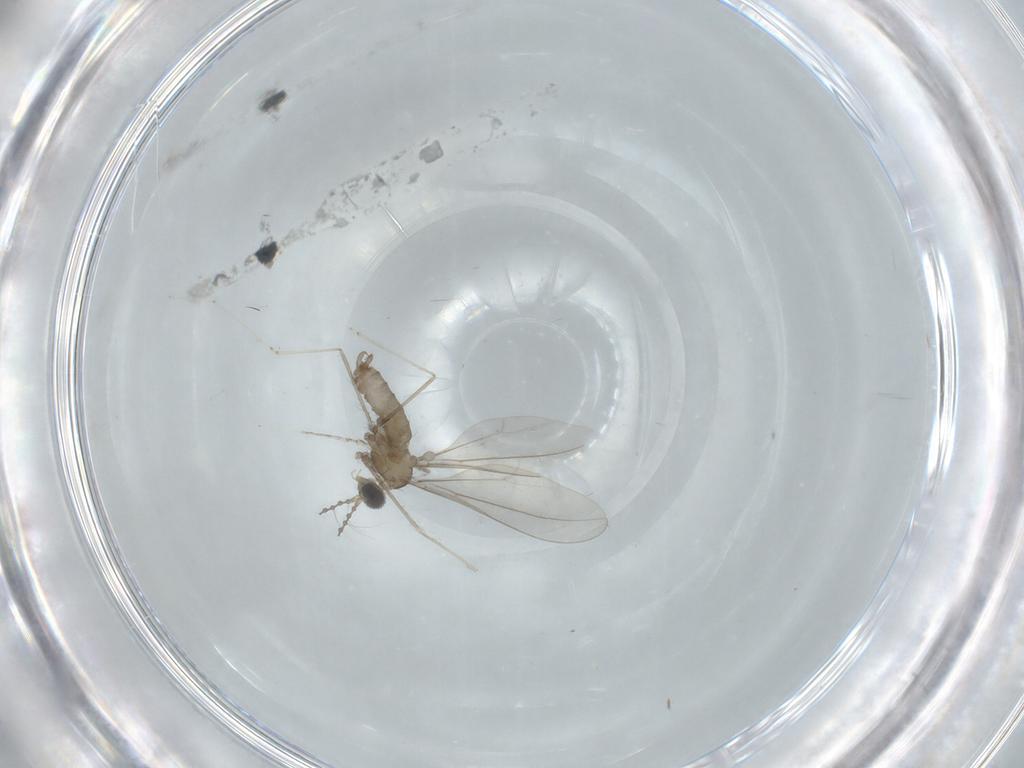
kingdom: Animalia
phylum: Arthropoda
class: Insecta
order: Diptera
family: Cecidomyiidae
